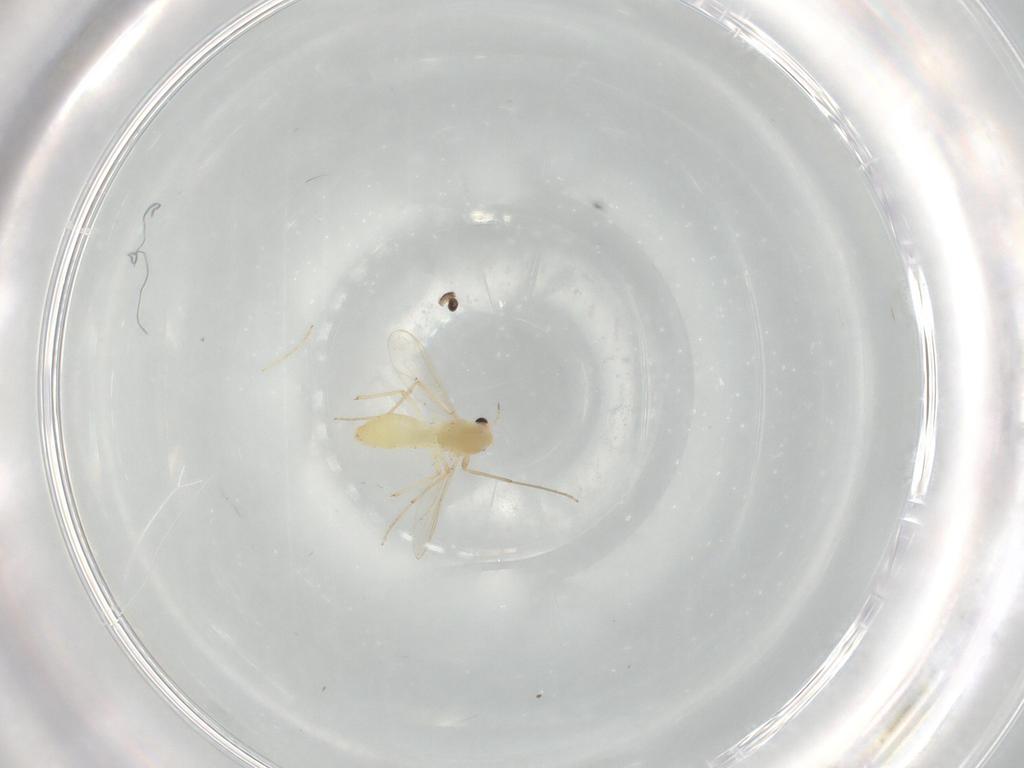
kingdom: Animalia
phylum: Arthropoda
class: Insecta
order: Diptera
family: Chironomidae
